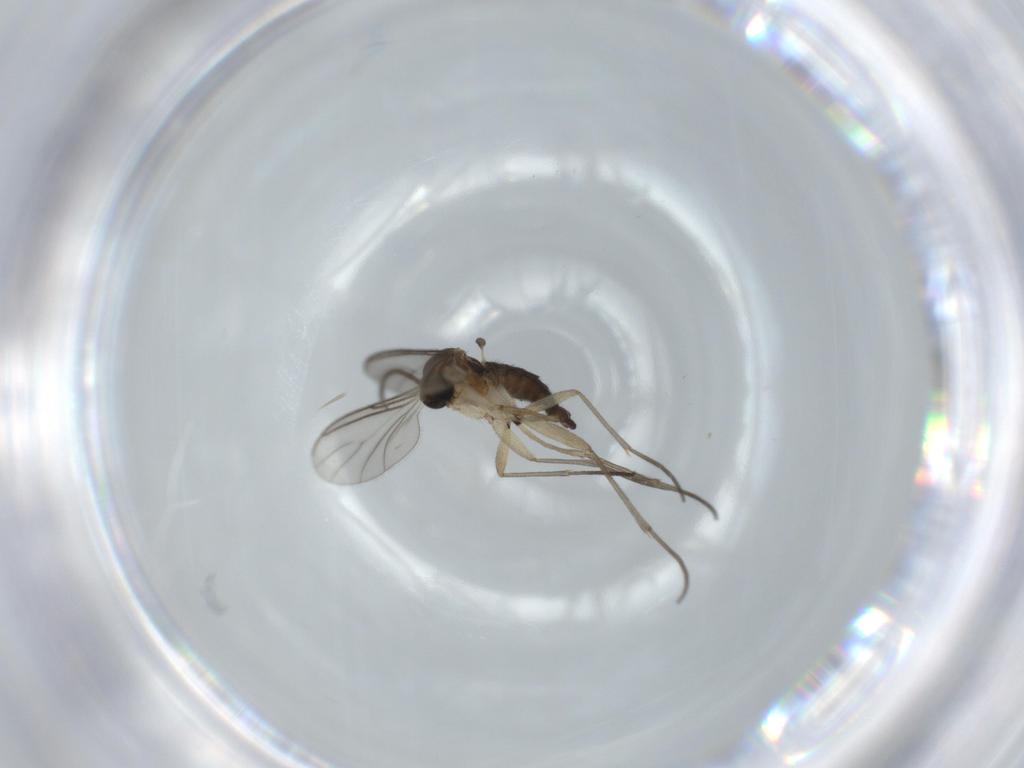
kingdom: Animalia
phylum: Arthropoda
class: Insecta
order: Diptera
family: Sciaridae
